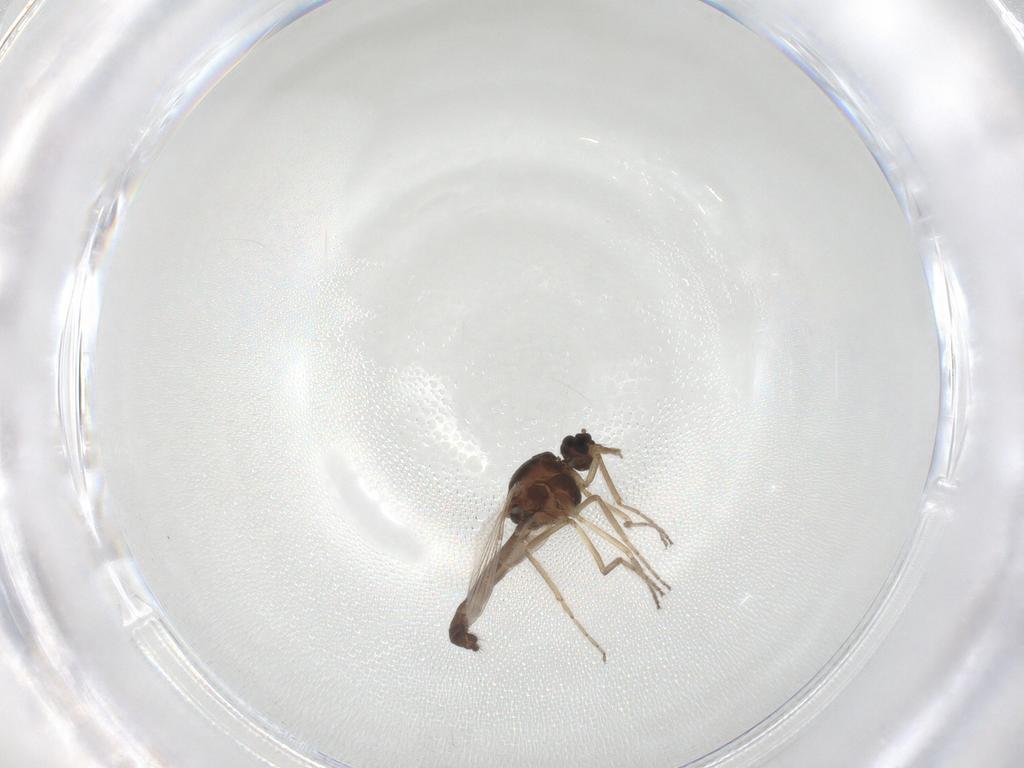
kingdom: Animalia
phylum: Arthropoda
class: Insecta
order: Diptera
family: Ceratopogonidae
